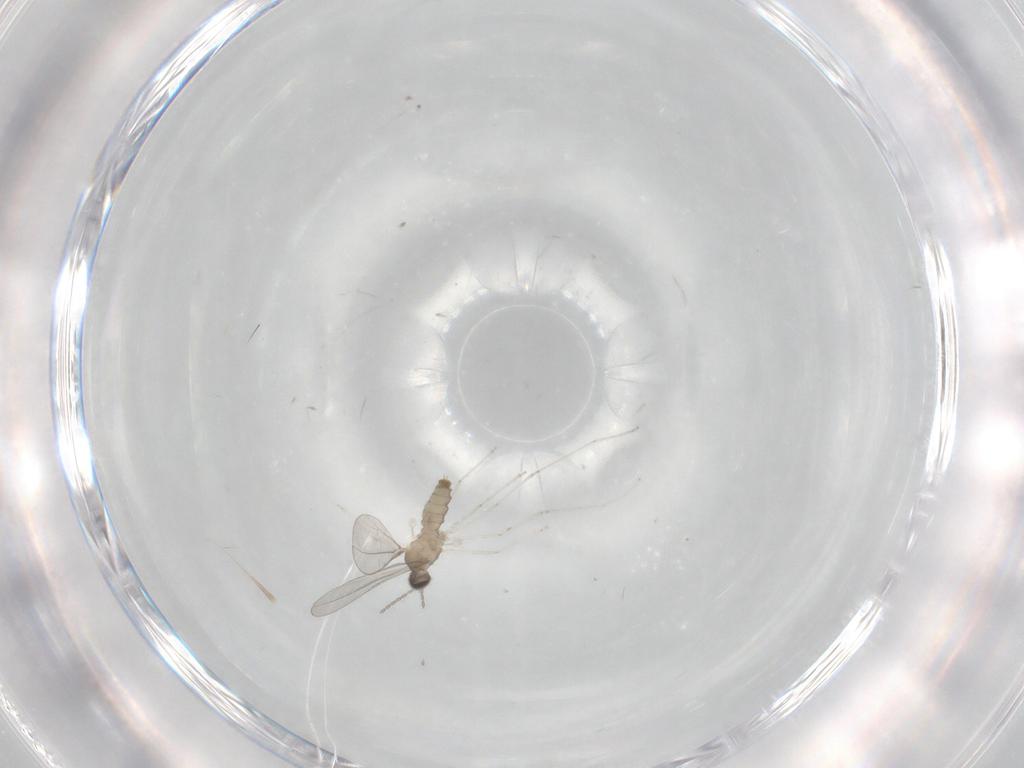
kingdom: Animalia
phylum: Arthropoda
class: Insecta
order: Diptera
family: Cecidomyiidae
